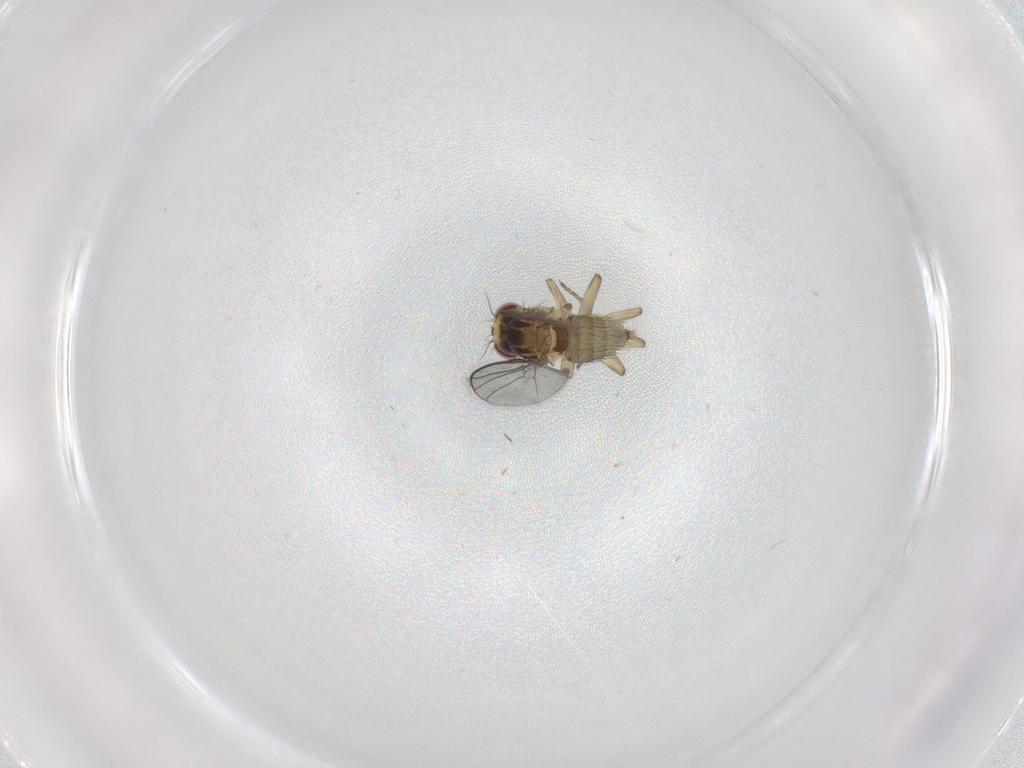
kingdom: Animalia
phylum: Arthropoda
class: Insecta
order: Diptera
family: Agromyzidae
